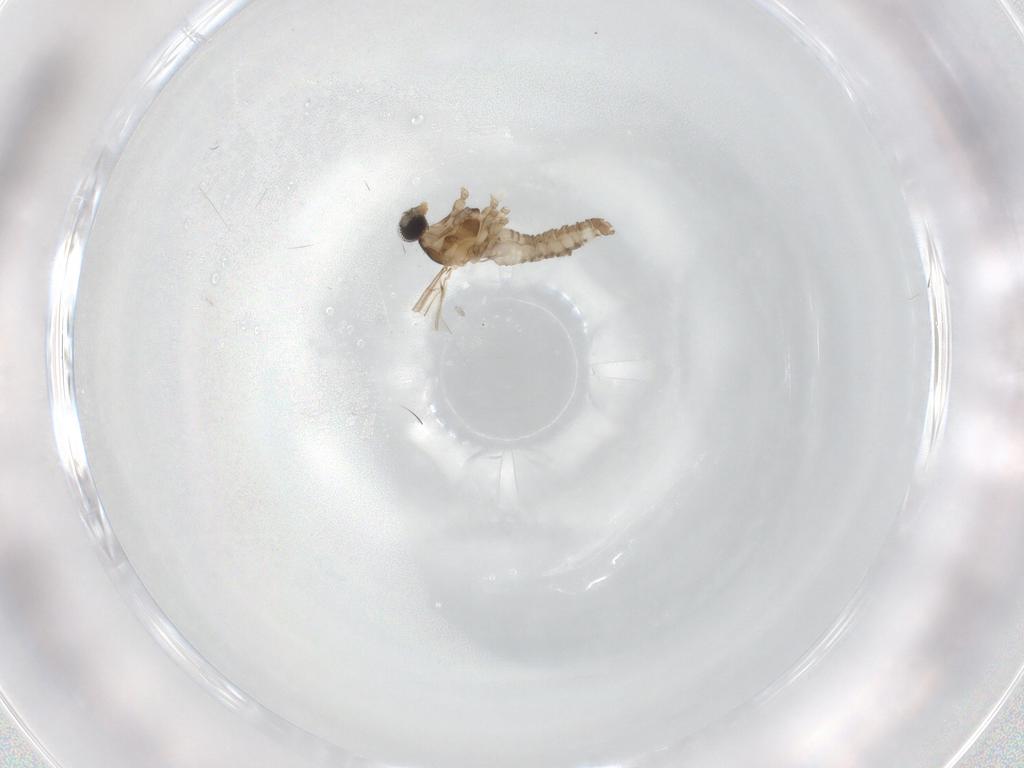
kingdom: Animalia
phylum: Arthropoda
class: Insecta
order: Diptera
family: Cecidomyiidae
